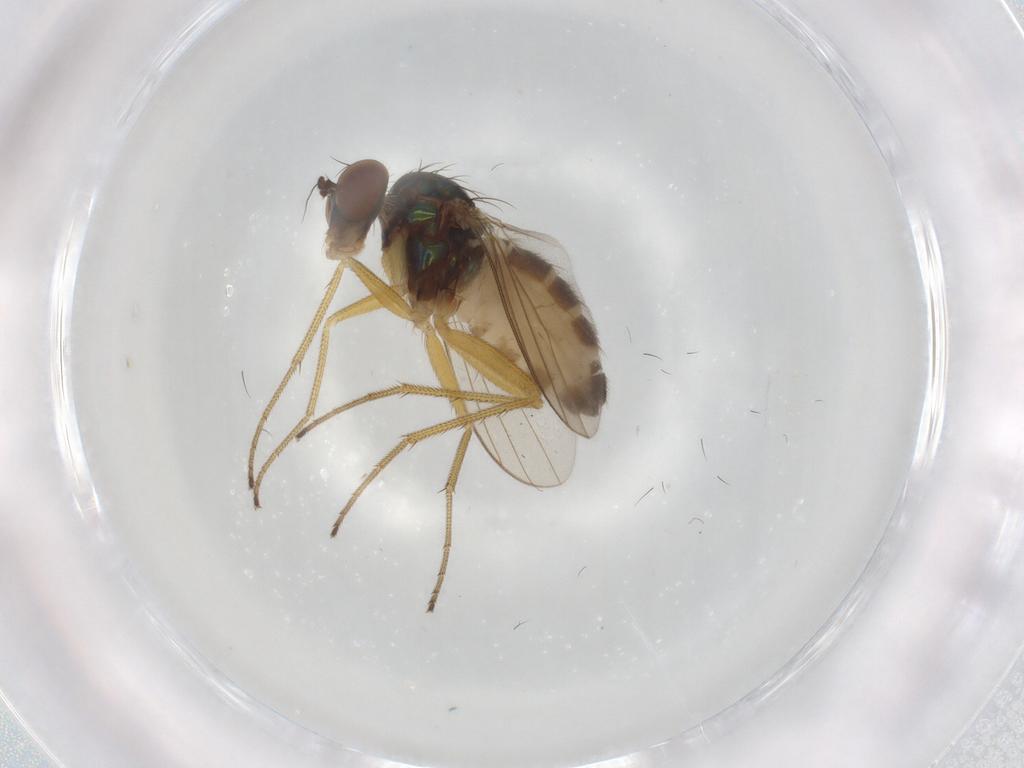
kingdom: Animalia
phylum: Arthropoda
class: Insecta
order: Diptera
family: Dolichopodidae
